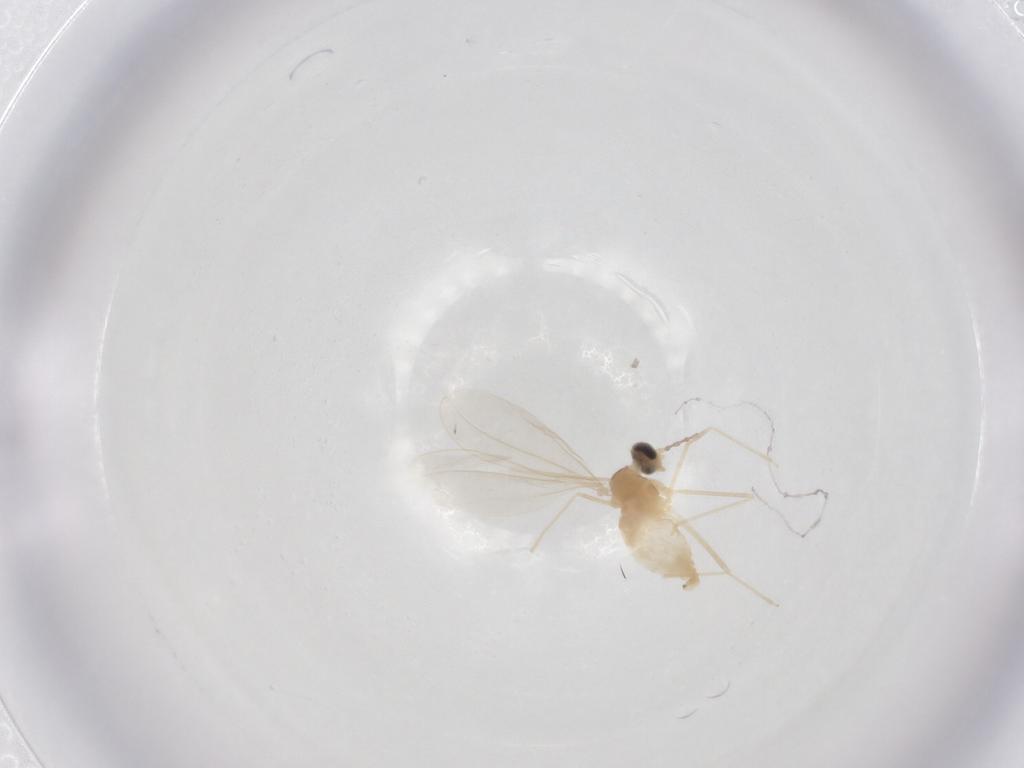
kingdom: Animalia
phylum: Arthropoda
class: Insecta
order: Diptera
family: Cecidomyiidae
